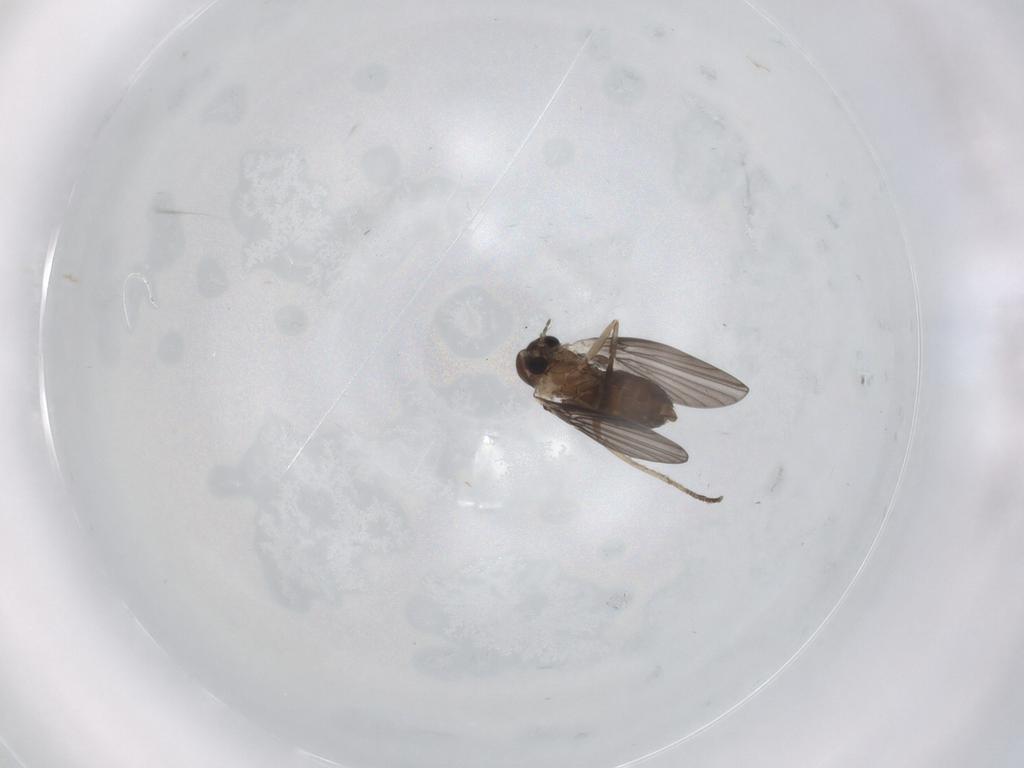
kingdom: Animalia
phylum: Arthropoda
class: Insecta
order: Diptera
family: Psychodidae
